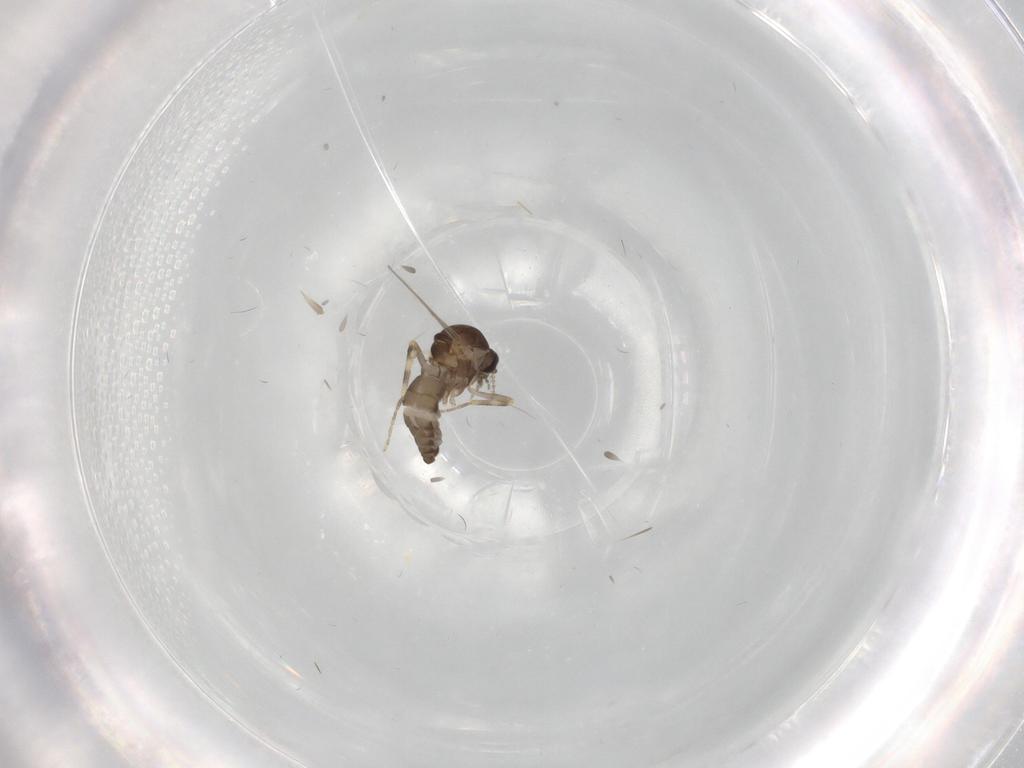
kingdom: Animalia
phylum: Arthropoda
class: Insecta
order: Diptera
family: Ceratopogonidae
